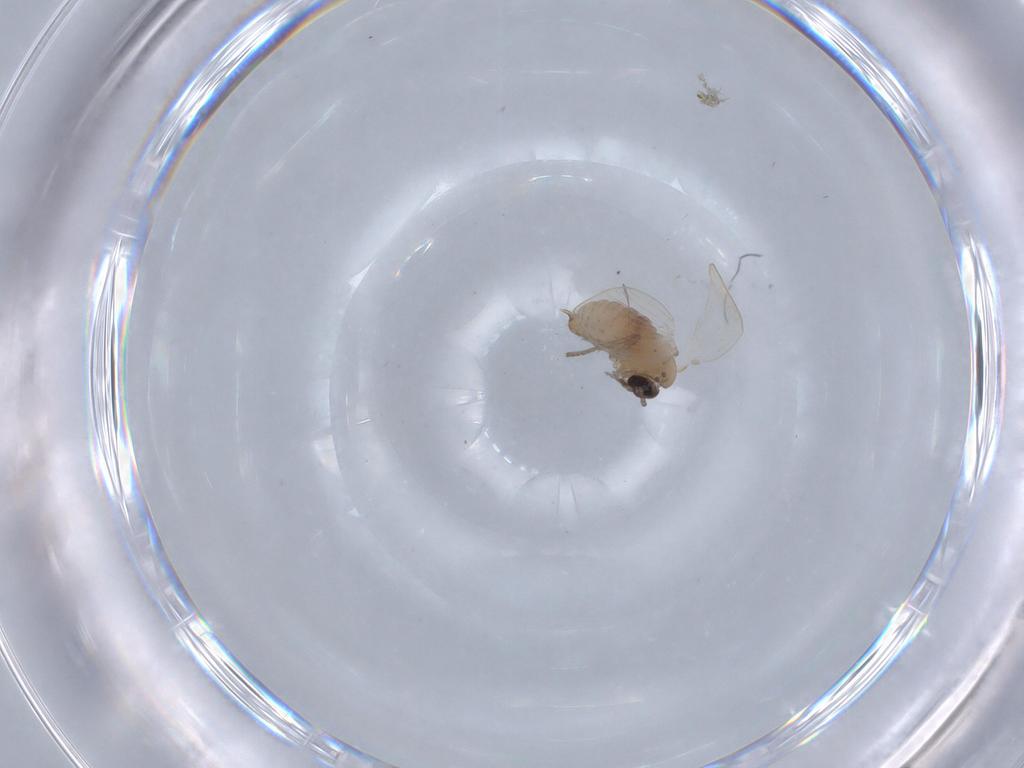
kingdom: Animalia
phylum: Arthropoda
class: Insecta
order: Diptera
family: Psychodidae
